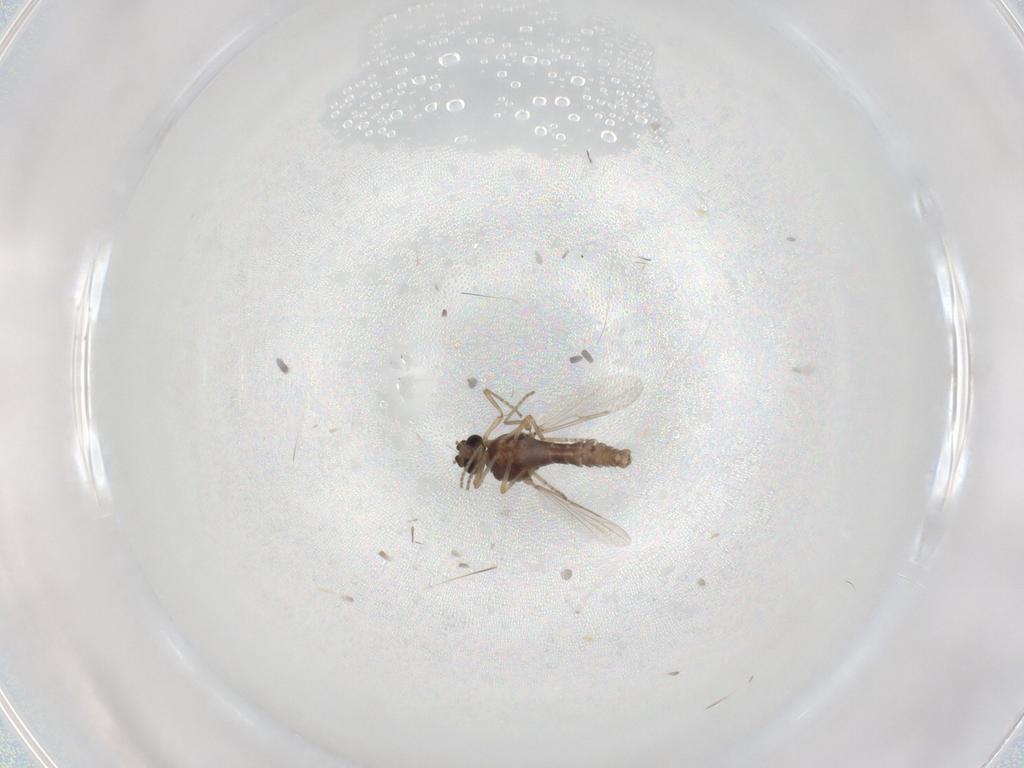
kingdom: Animalia
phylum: Arthropoda
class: Insecta
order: Diptera
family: Ceratopogonidae
